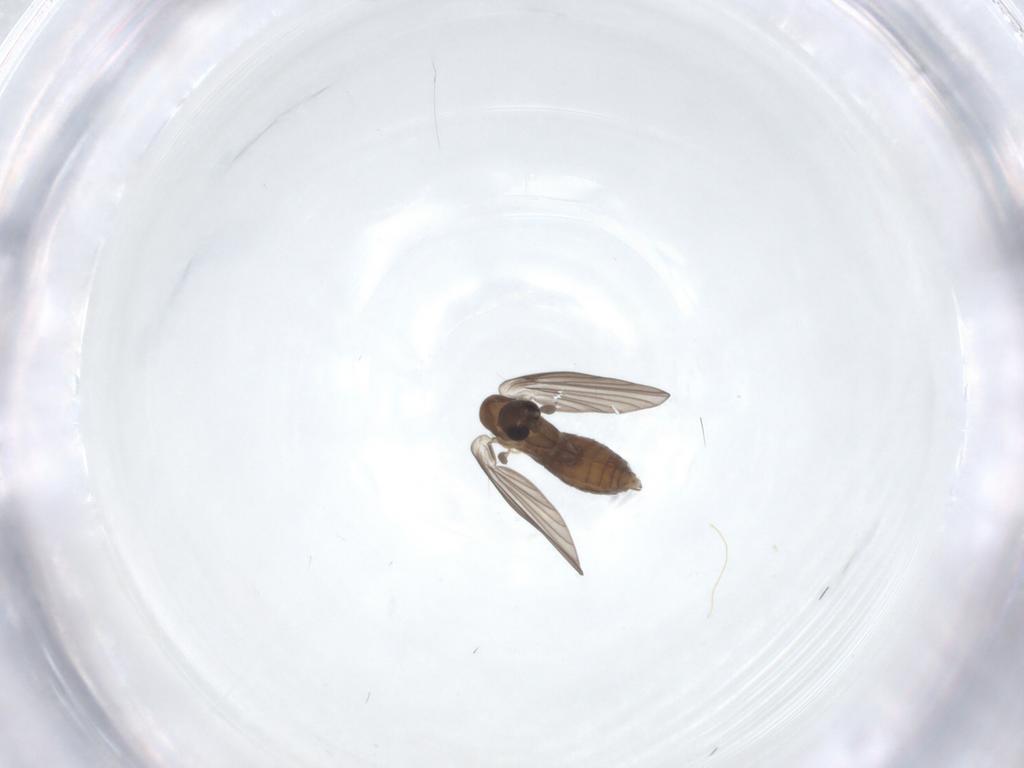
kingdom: Animalia
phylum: Arthropoda
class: Insecta
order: Diptera
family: Psychodidae
